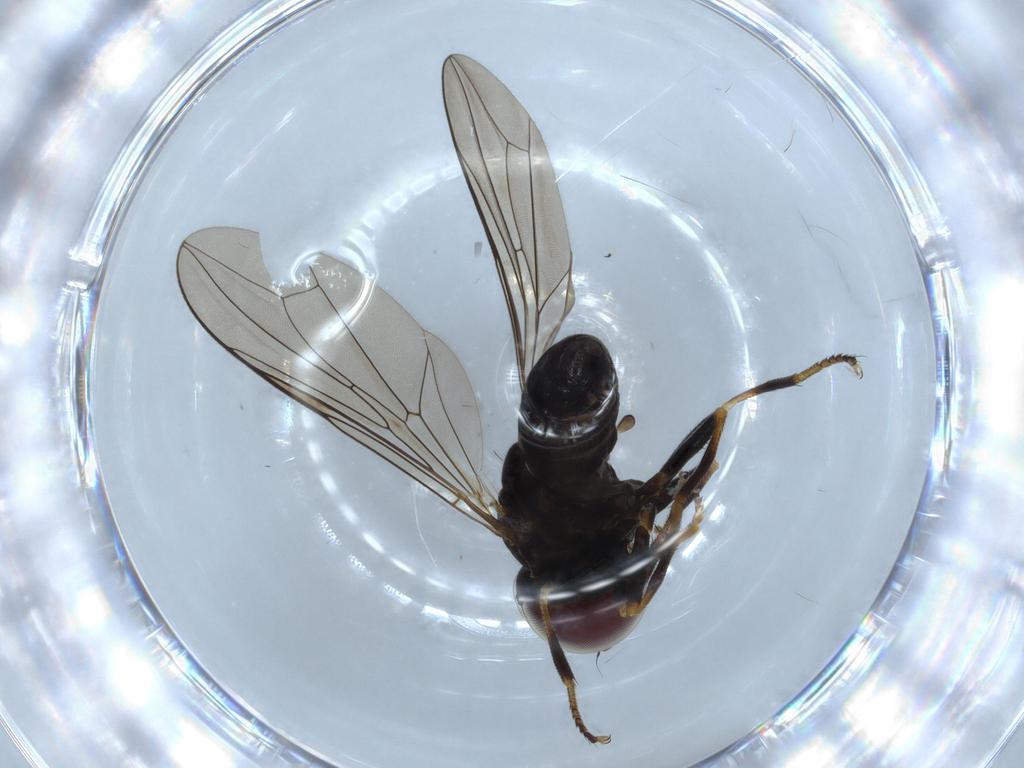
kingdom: Animalia
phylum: Arthropoda
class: Insecta
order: Diptera
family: Pipunculidae
